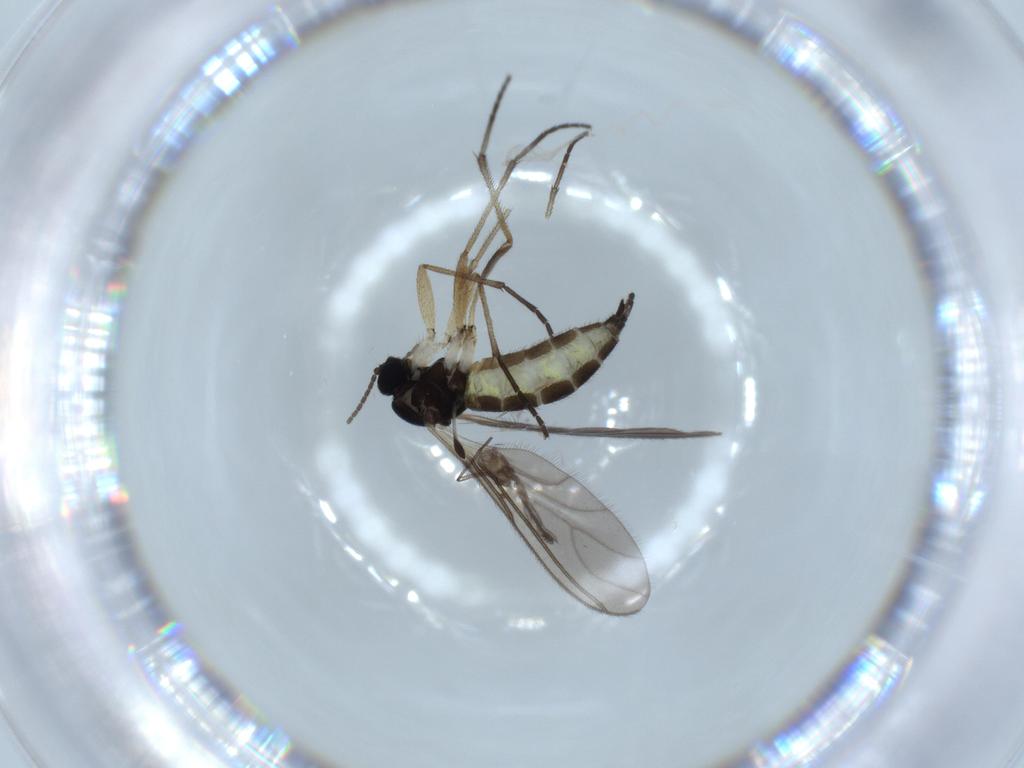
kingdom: Animalia
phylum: Arthropoda
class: Insecta
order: Diptera
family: Sciaridae
